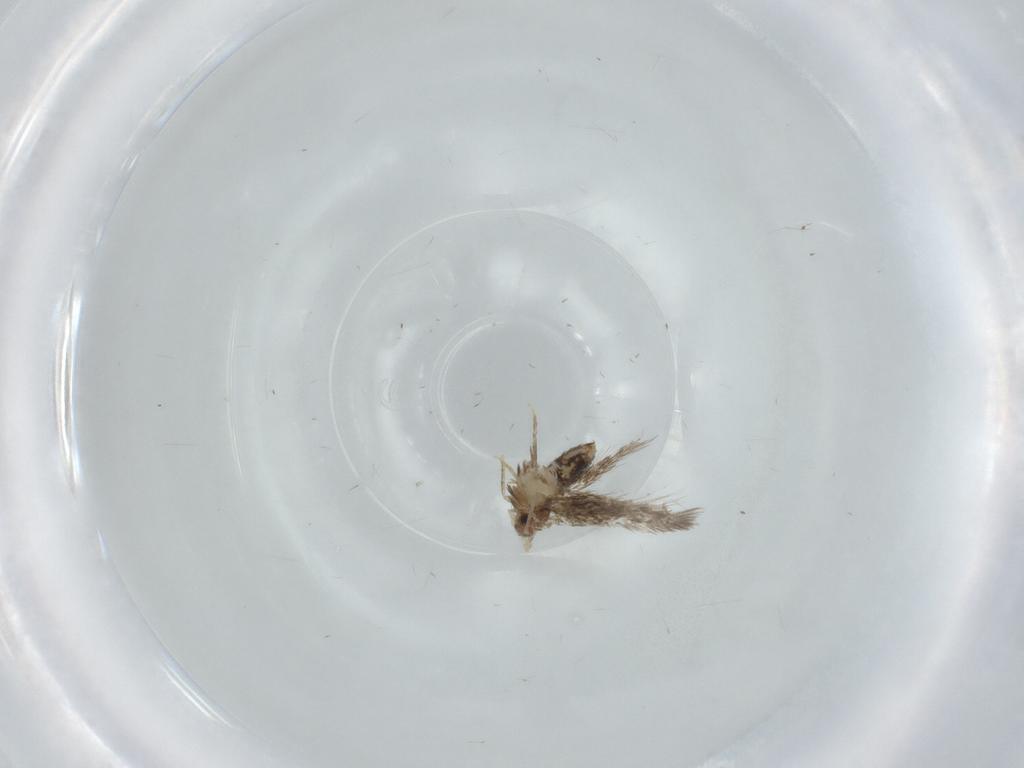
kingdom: Animalia
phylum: Arthropoda
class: Insecta
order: Lepidoptera
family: Nepticulidae
